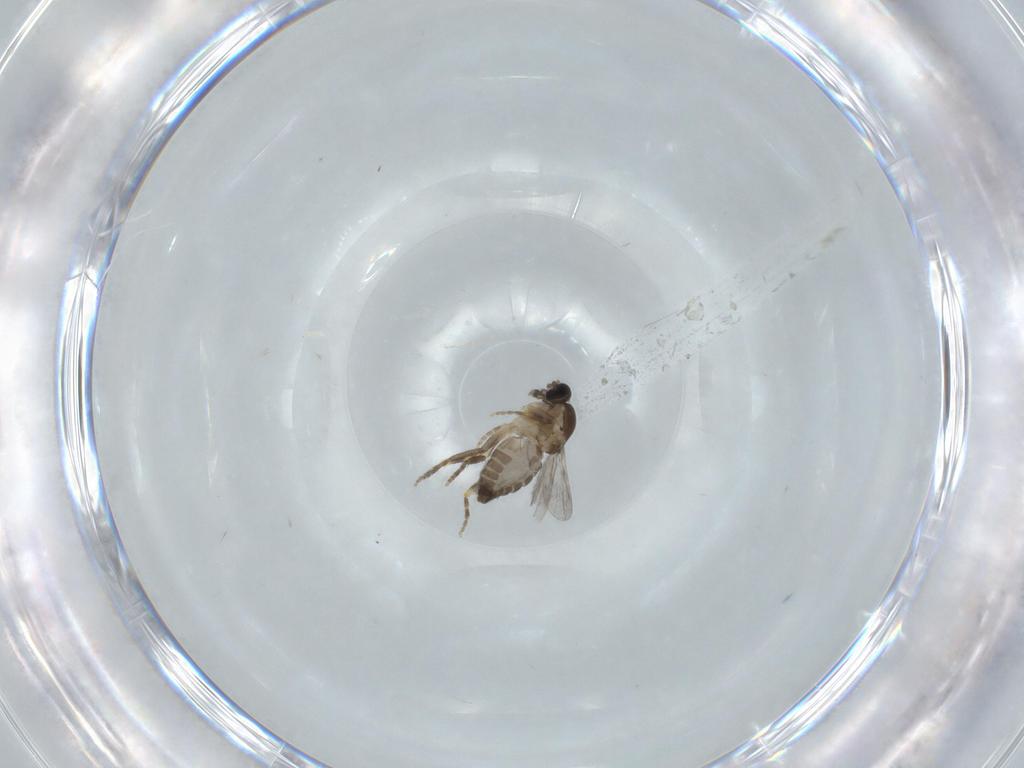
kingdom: Animalia
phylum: Arthropoda
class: Insecta
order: Diptera
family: Ceratopogonidae
